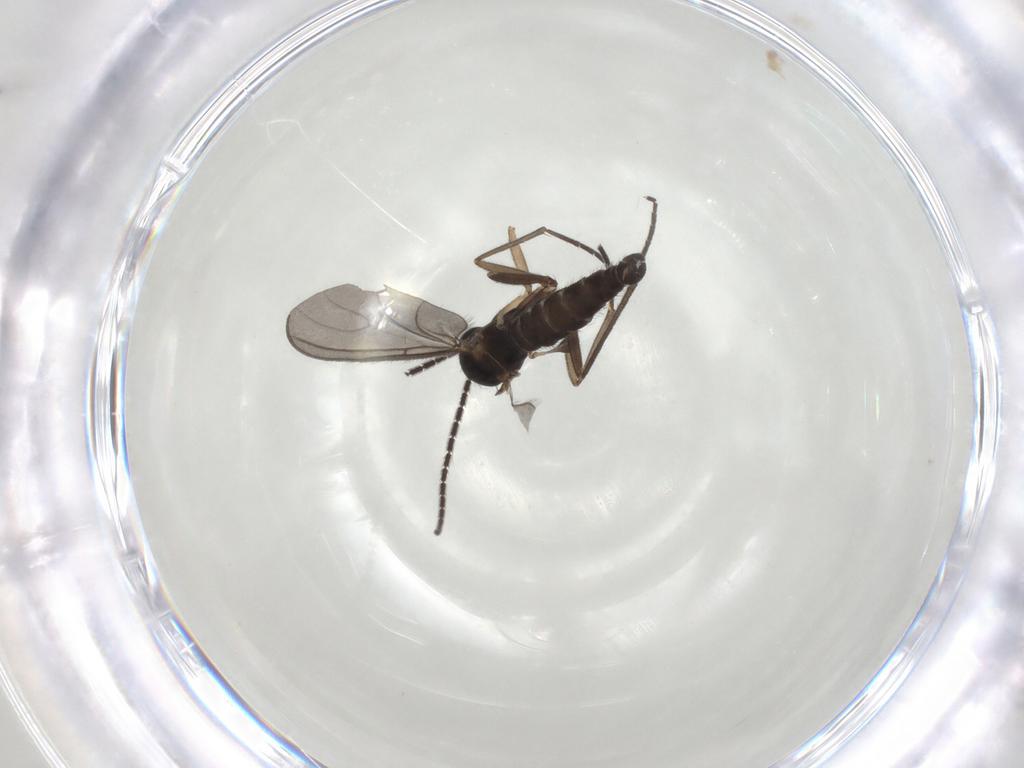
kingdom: Animalia
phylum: Arthropoda
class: Insecta
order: Diptera
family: Sciaridae
